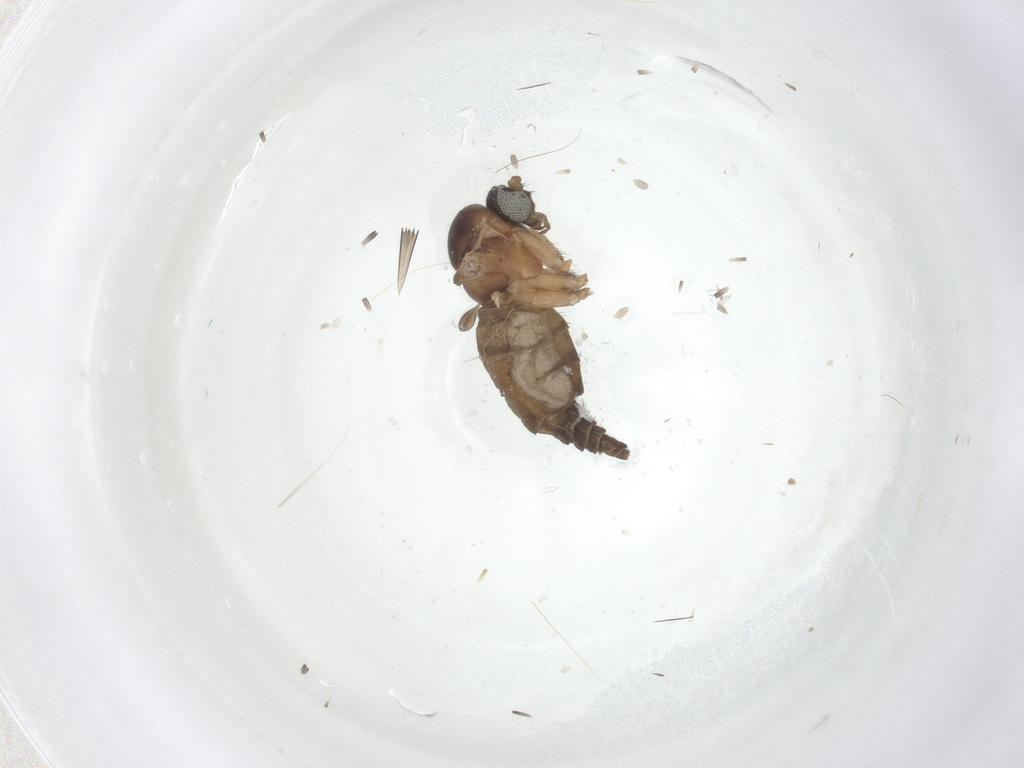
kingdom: Animalia
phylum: Arthropoda
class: Insecta
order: Diptera
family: Sciaridae
